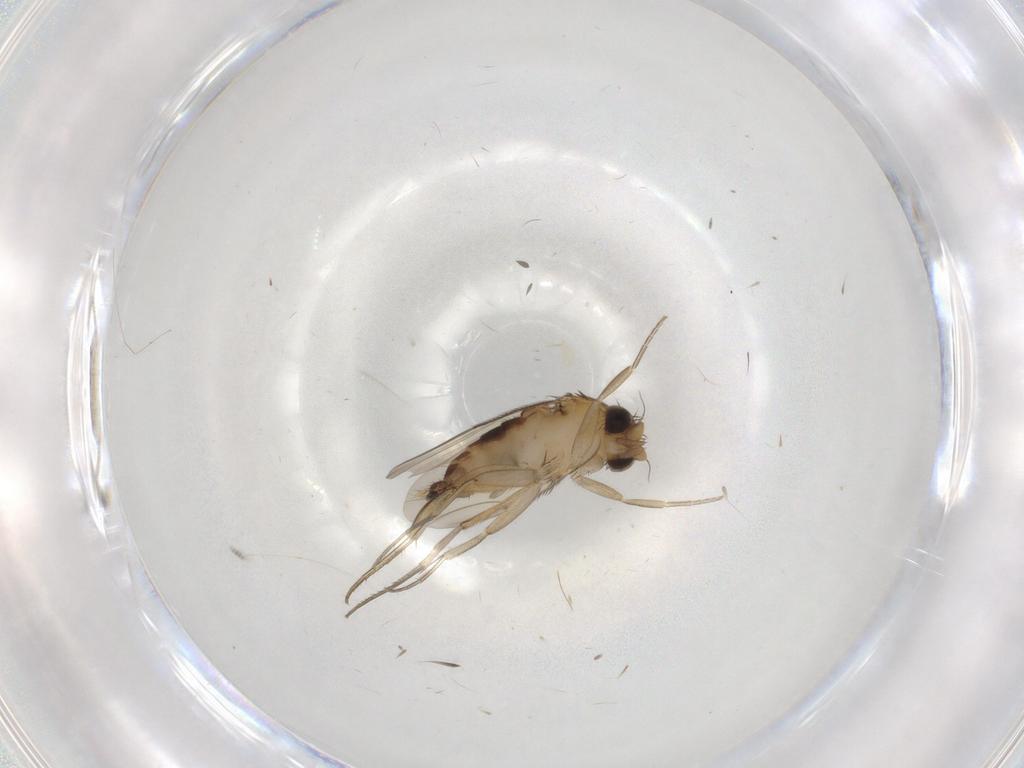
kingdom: Animalia
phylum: Arthropoda
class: Insecta
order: Diptera
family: Phoridae
